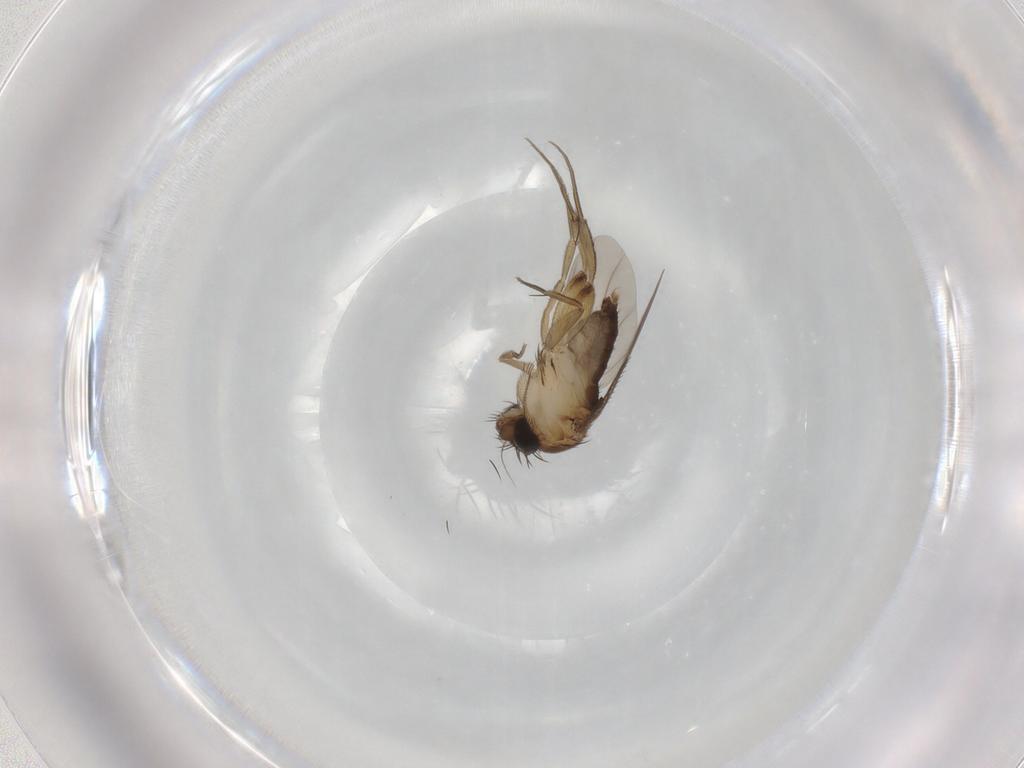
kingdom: Animalia
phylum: Arthropoda
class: Insecta
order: Diptera
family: Phoridae
